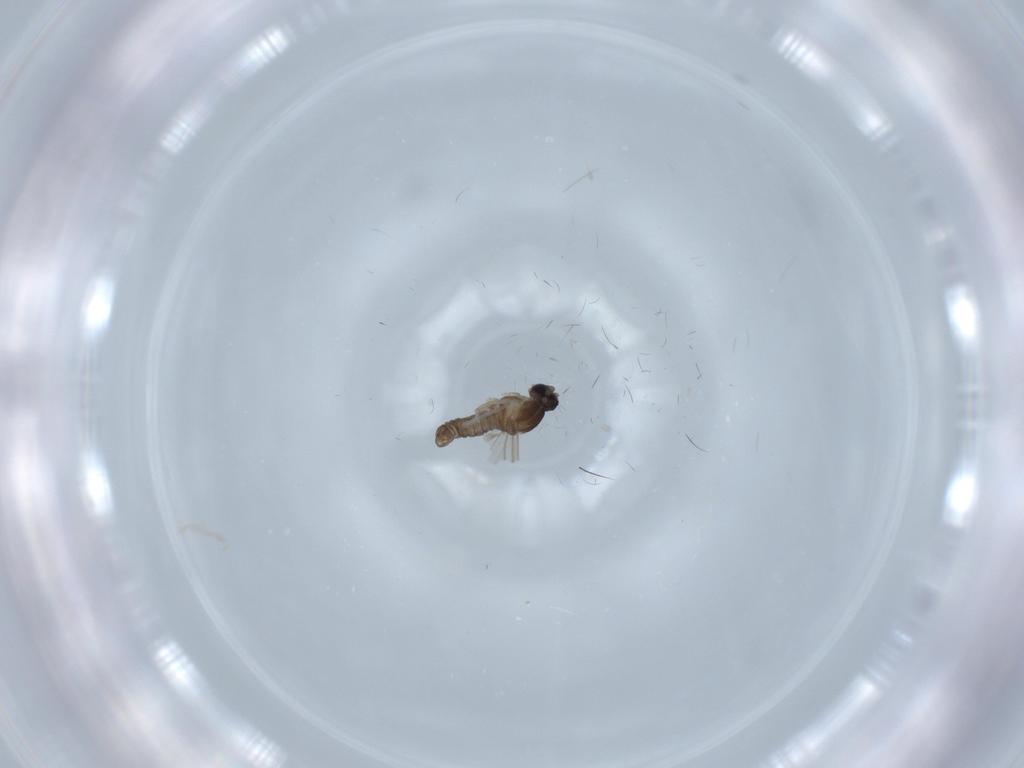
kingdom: Animalia
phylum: Arthropoda
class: Insecta
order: Diptera
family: Cecidomyiidae
